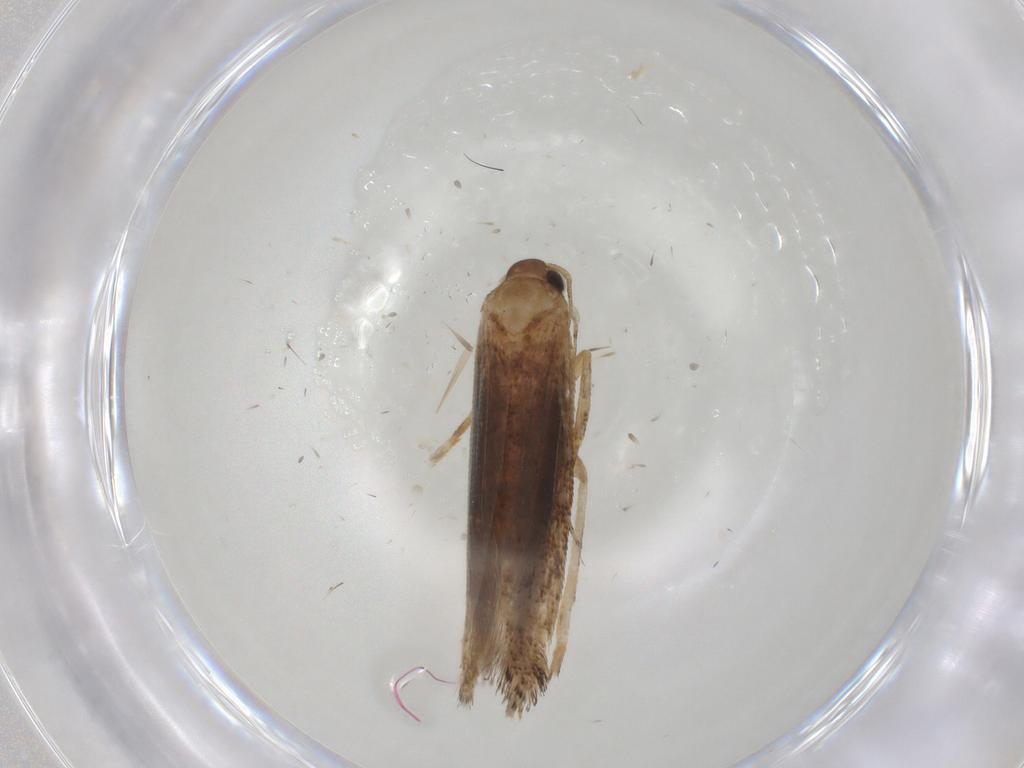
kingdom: Animalia
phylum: Arthropoda
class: Insecta
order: Lepidoptera
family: Gelechiidae
